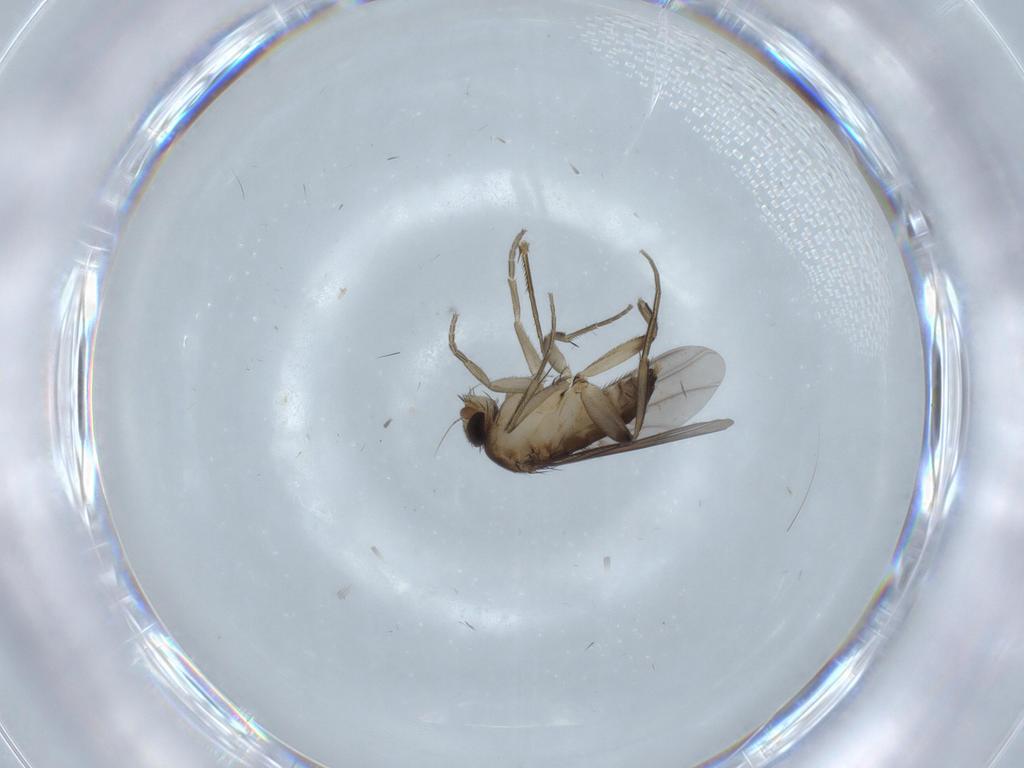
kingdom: Animalia
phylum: Arthropoda
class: Insecta
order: Diptera
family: Phoridae
